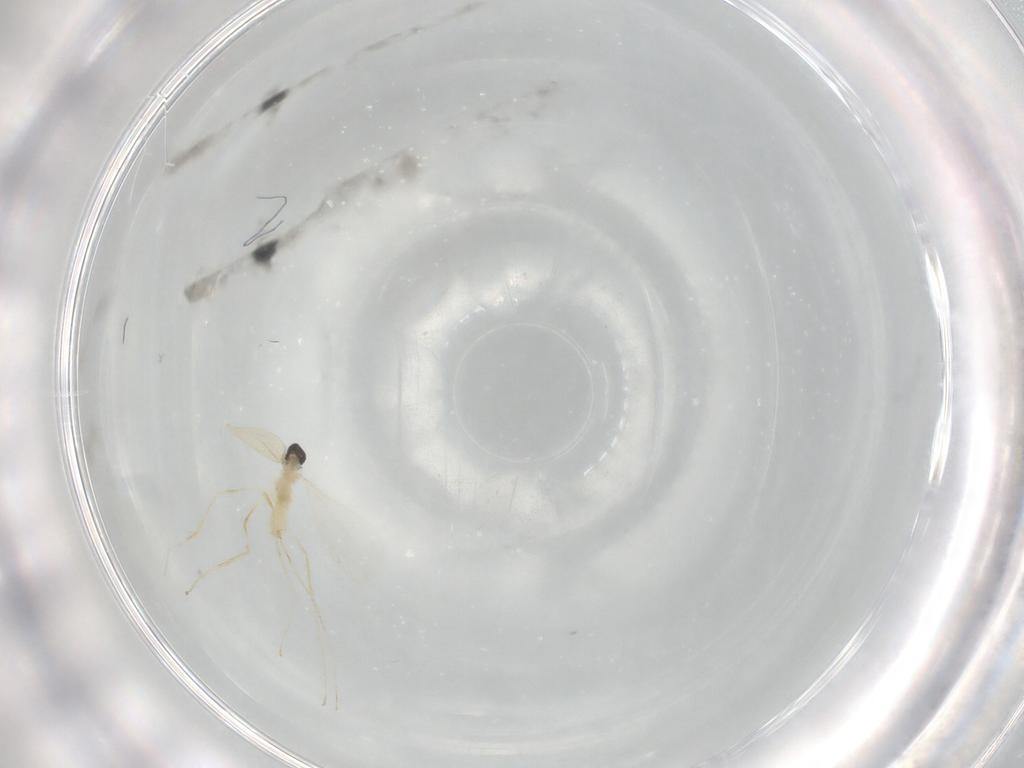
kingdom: Animalia
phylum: Arthropoda
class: Insecta
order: Diptera
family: Cecidomyiidae
